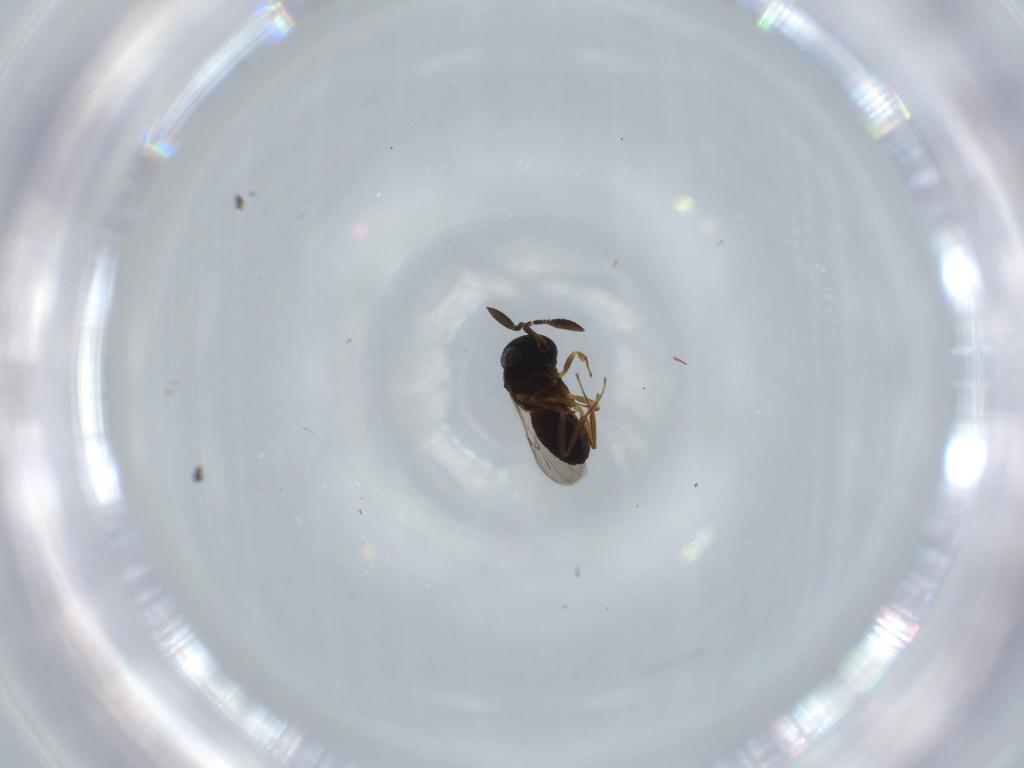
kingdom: Animalia
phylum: Arthropoda
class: Insecta
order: Hymenoptera
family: Scelionidae
